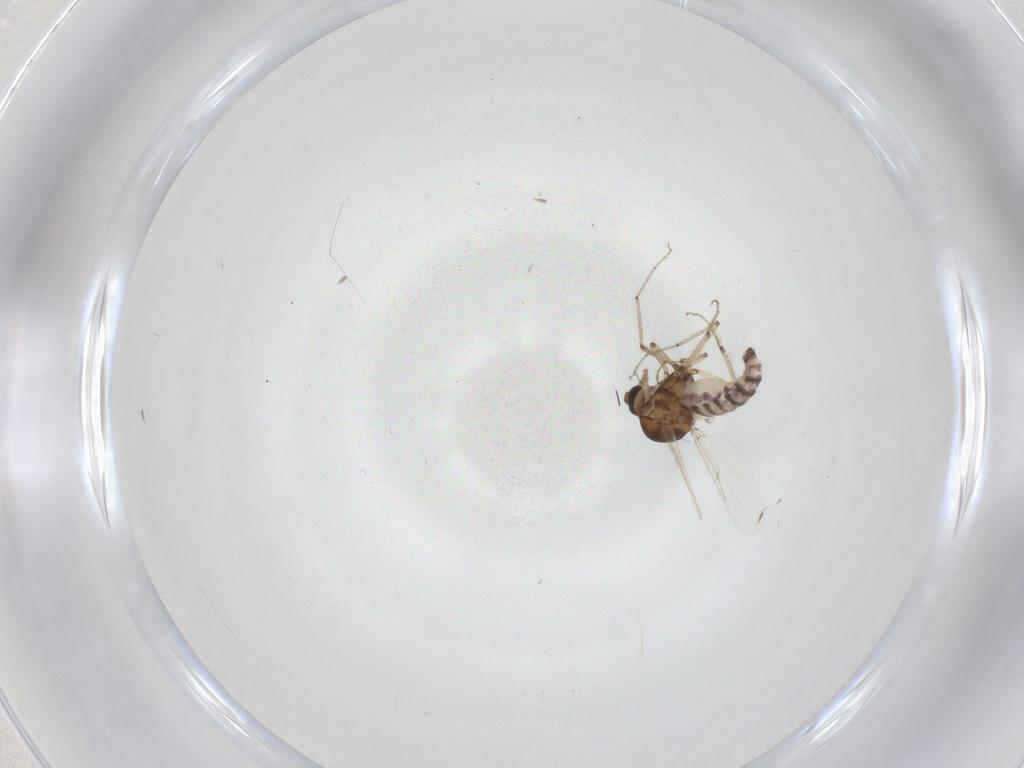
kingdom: Animalia
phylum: Arthropoda
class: Insecta
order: Diptera
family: Ceratopogonidae
